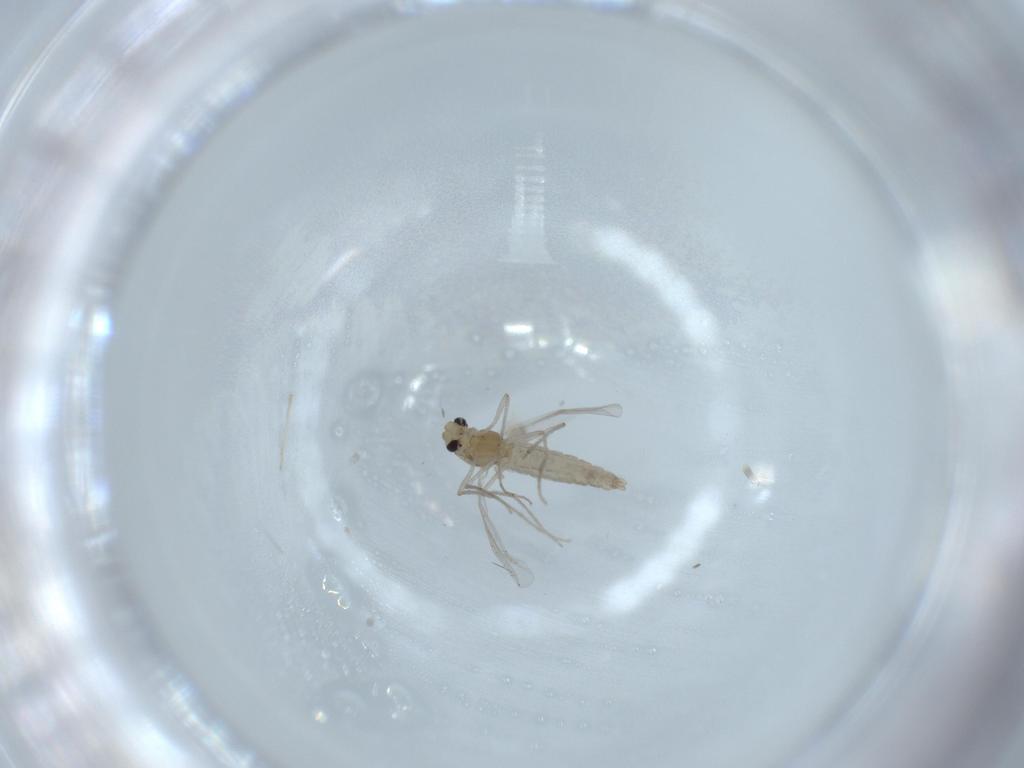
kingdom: Animalia
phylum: Arthropoda
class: Insecta
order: Diptera
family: Chironomidae
